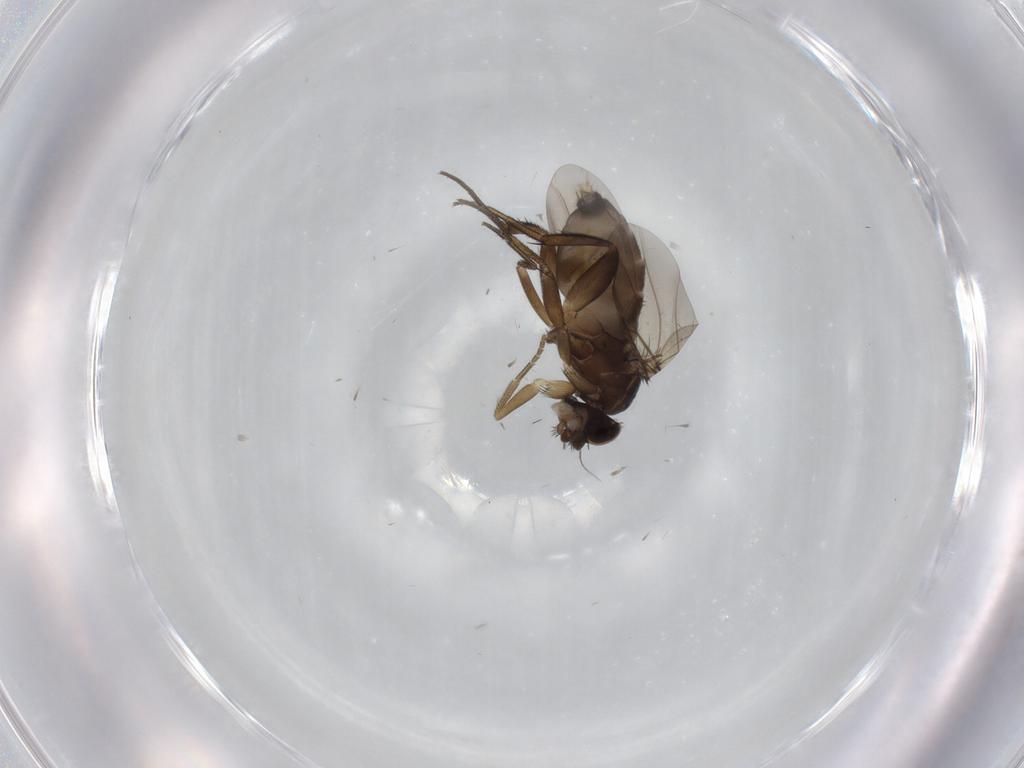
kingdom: Animalia
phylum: Arthropoda
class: Insecta
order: Diptera
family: Phoridae
